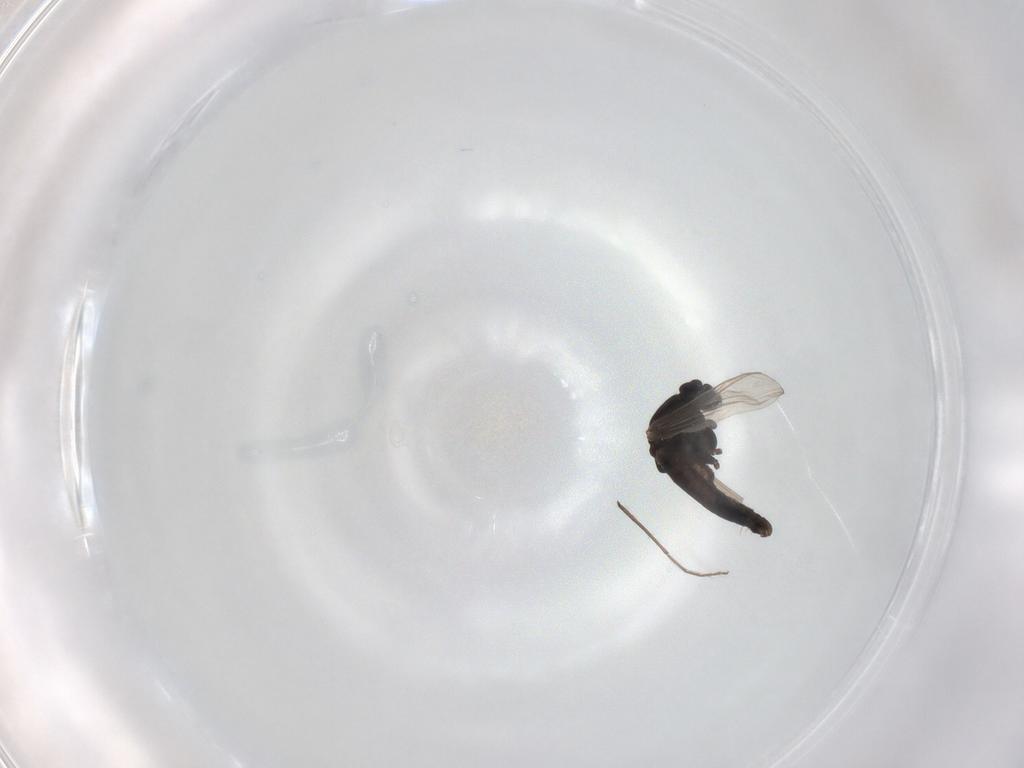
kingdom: Animalia
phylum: Arthropoda
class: Insecta
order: Diptera
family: Chironomidae
